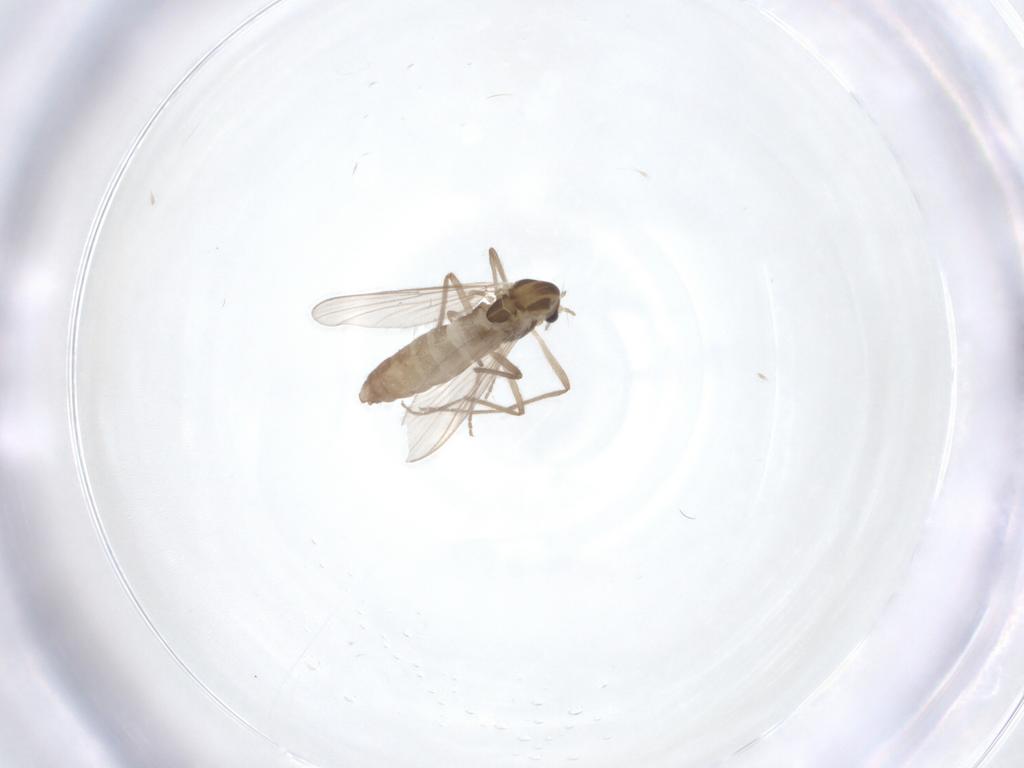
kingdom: Animalia
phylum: Arthropoda
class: Insecta
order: Diptera
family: Chironomidae
